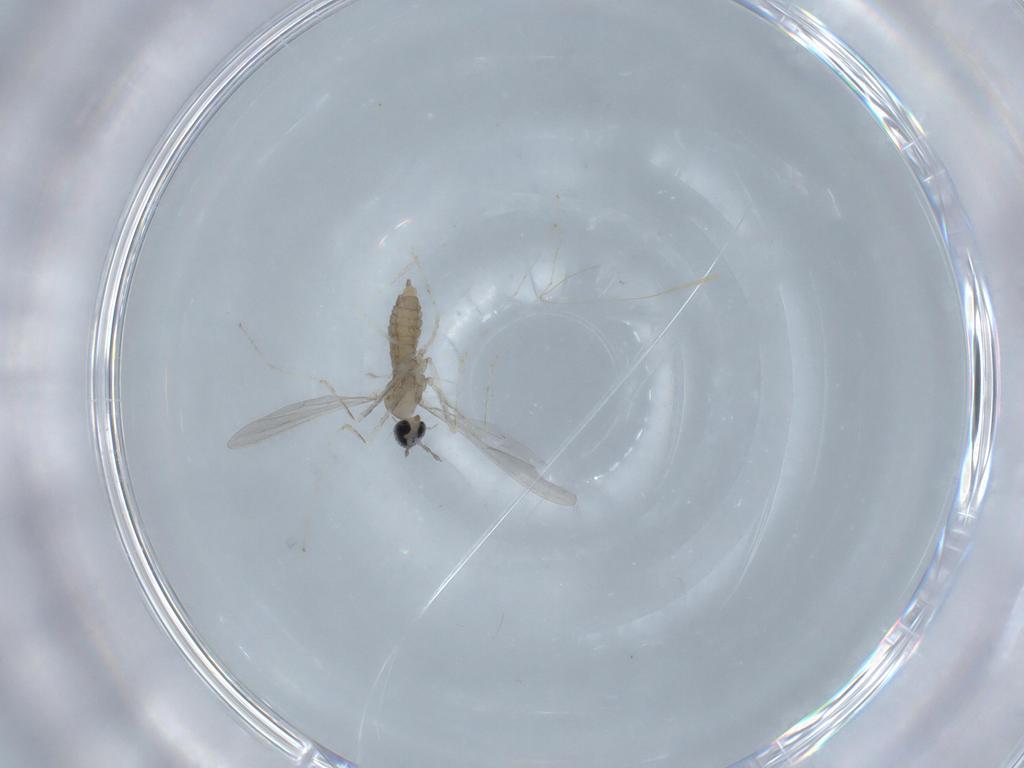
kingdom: Animalia
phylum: Arthropoda
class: Insecta
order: Diptera
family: Cecidomyiidae
